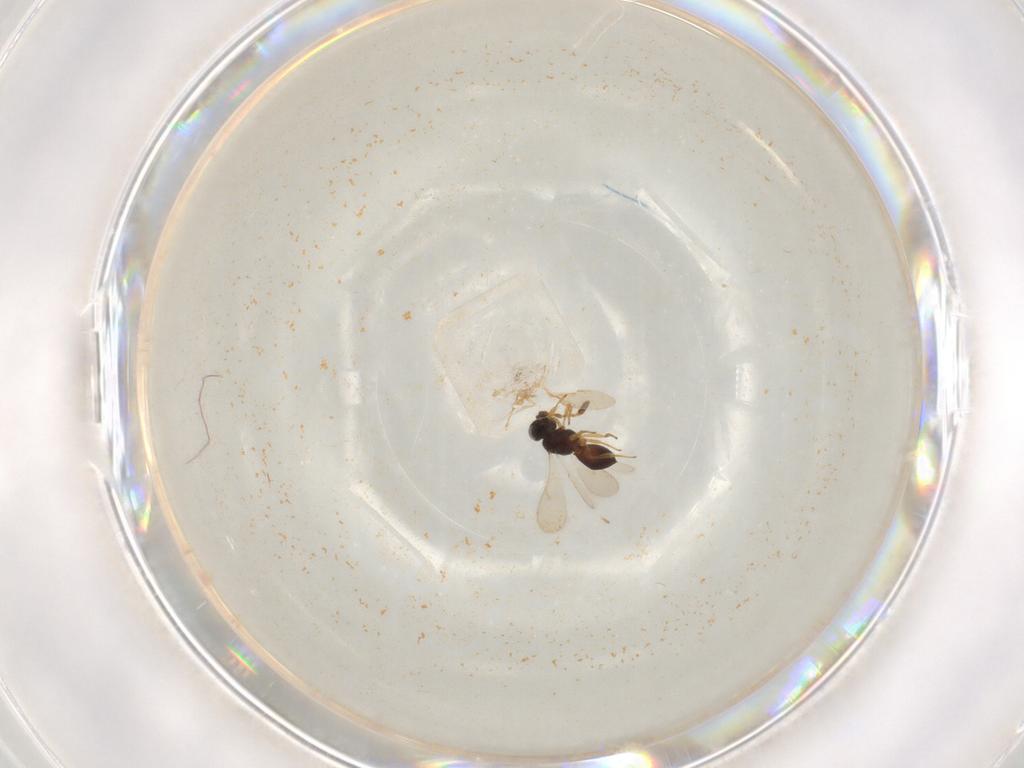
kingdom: Animalia
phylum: Arthropoda
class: Insecta
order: Hymenoptera
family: Scelionidae
